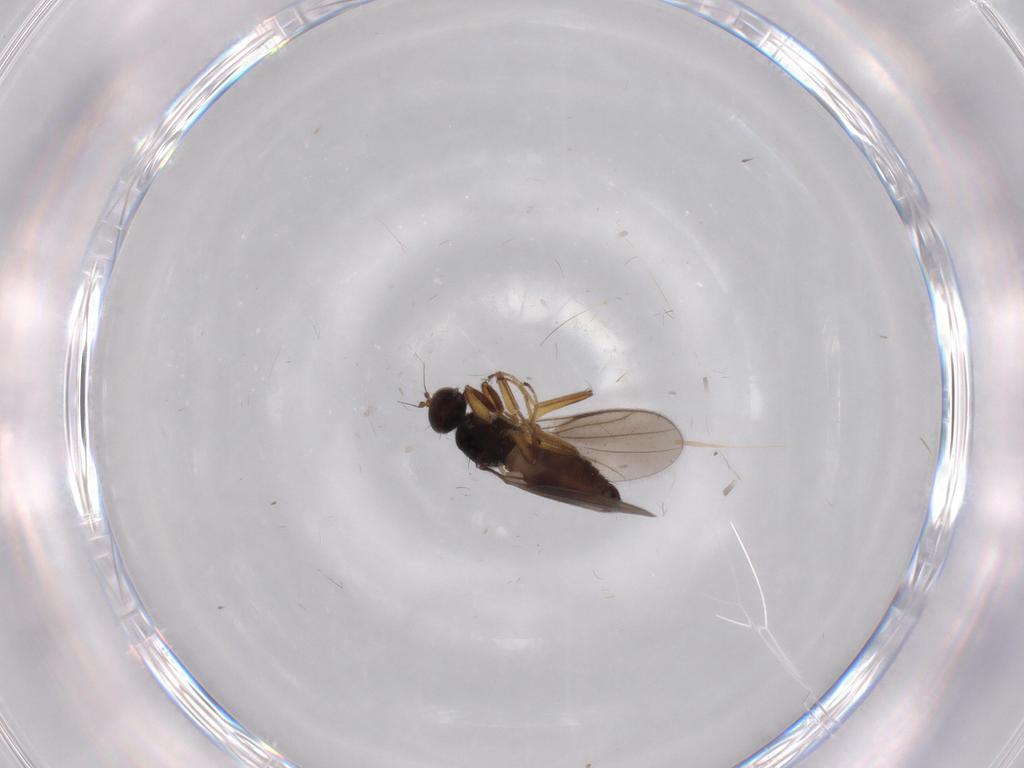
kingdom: Animalia
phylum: Arthropoda
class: Insecta
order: Diptera
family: Hybotidae
